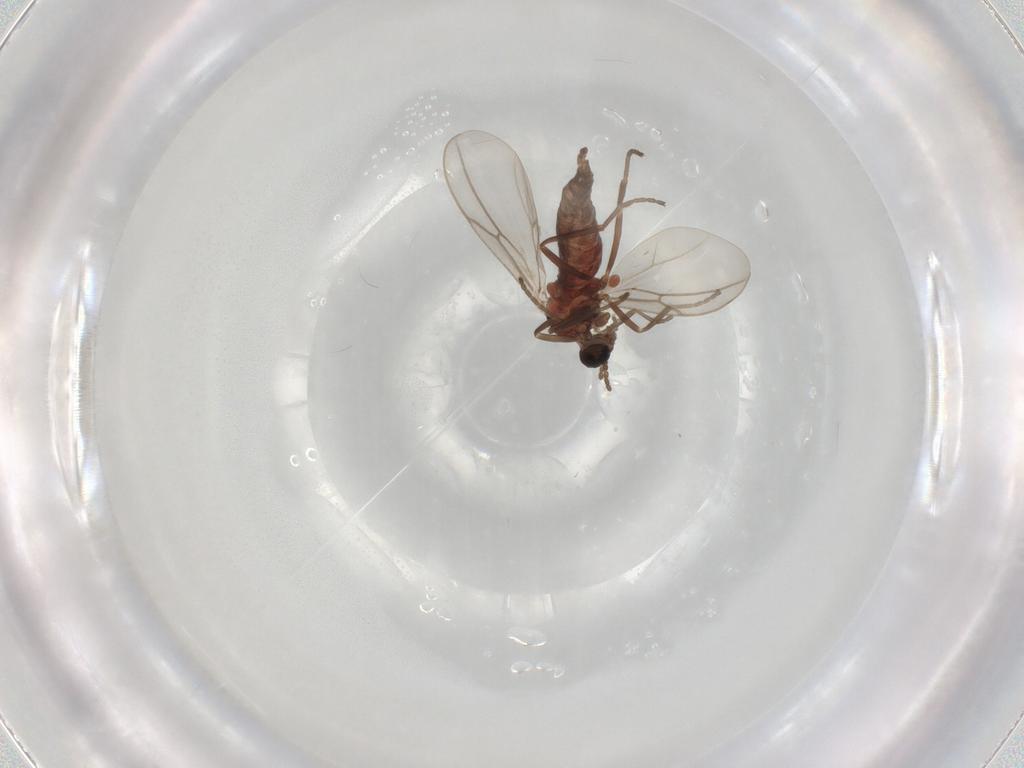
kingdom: Animalia
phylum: Arthropoda
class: Insecta
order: Diptera
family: Cecidomyiidae
